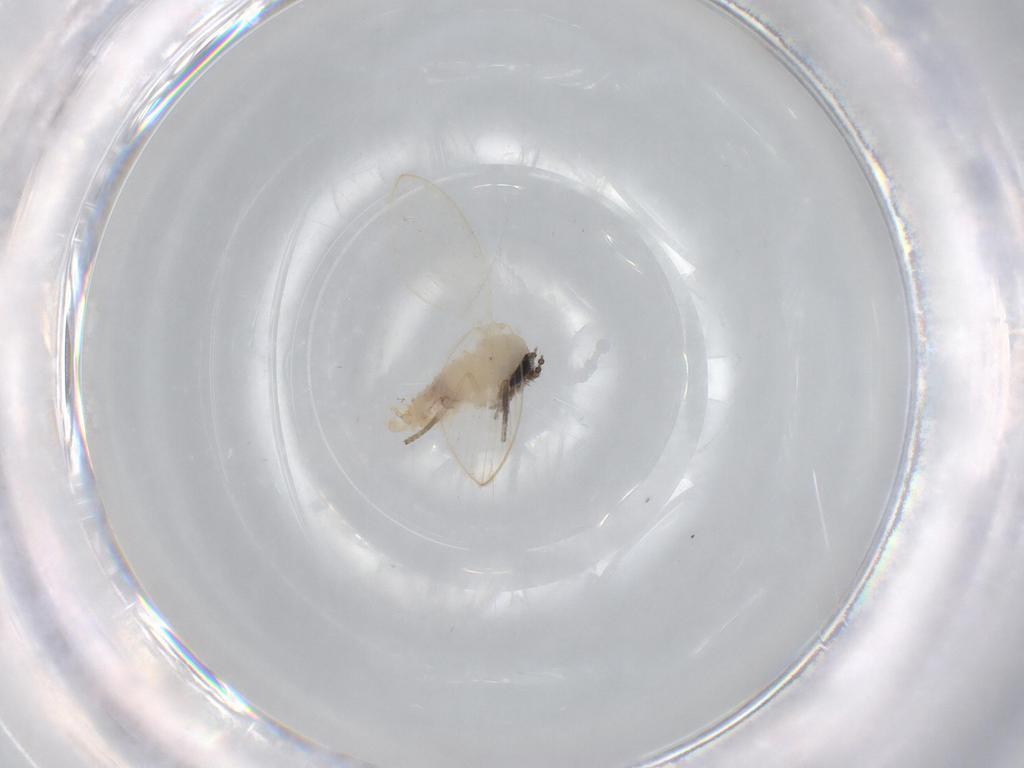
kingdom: Animalia
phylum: Arthropoda
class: Insecta
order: Diptera
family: Psychodidae
